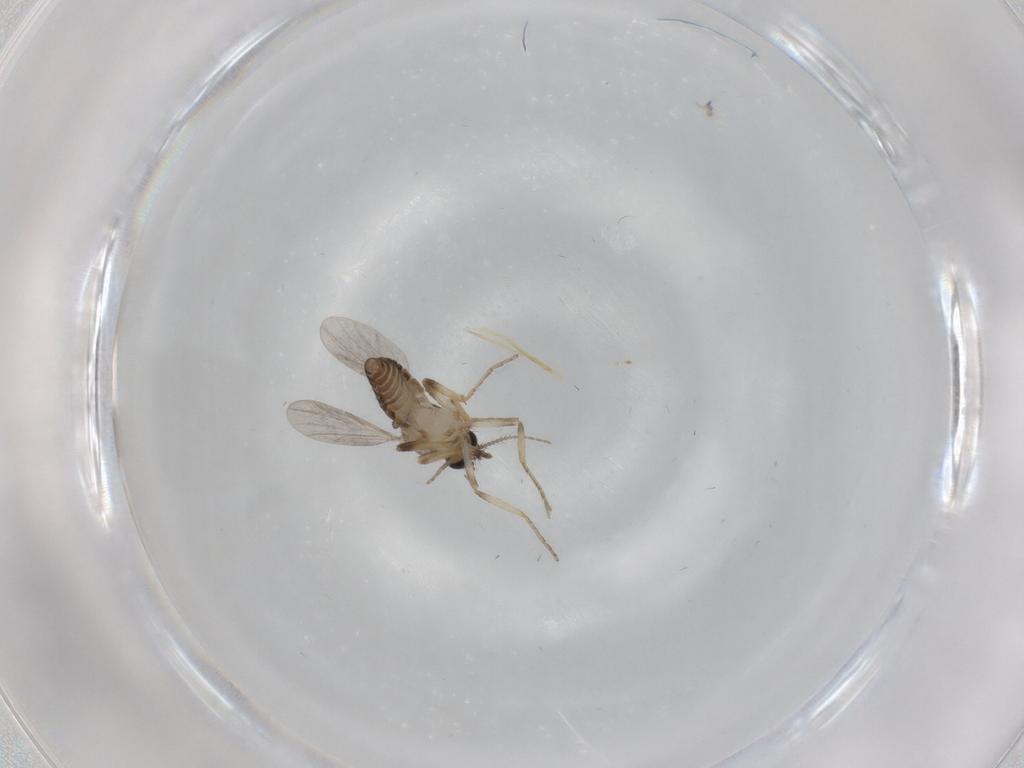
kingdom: Animalia
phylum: Arthropoda
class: Insecta
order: Diptera
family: Ceratopogonidae
